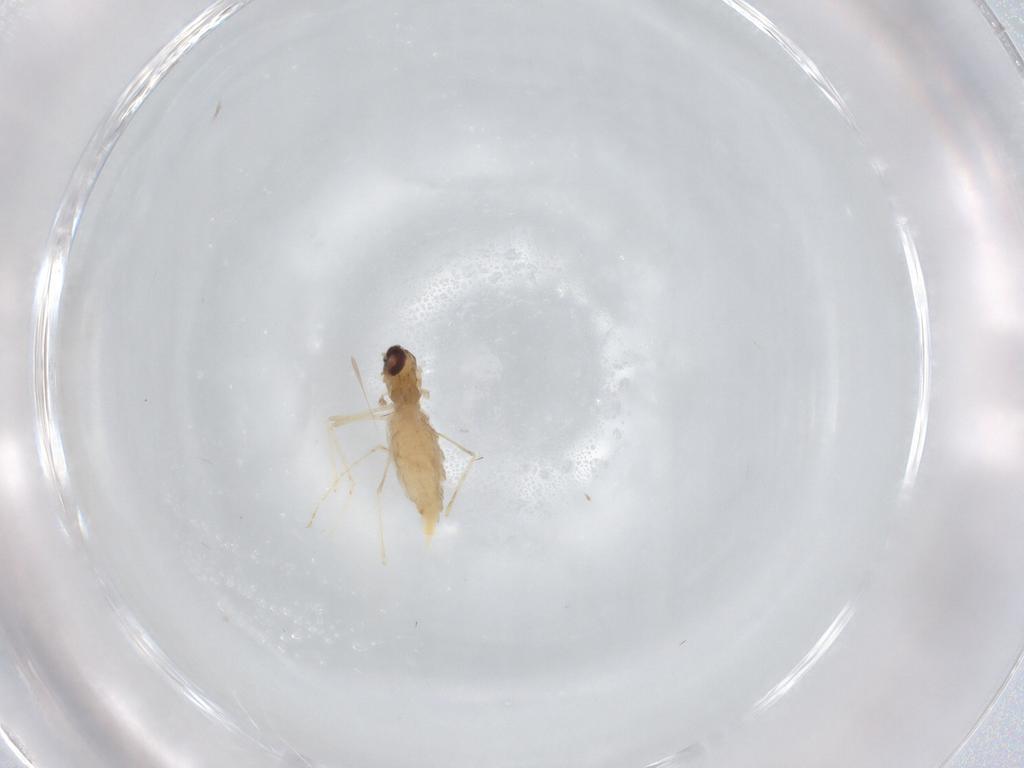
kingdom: Animalia
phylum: Arthropoda
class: Insecta
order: Diptera
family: Cecidomyiidae
